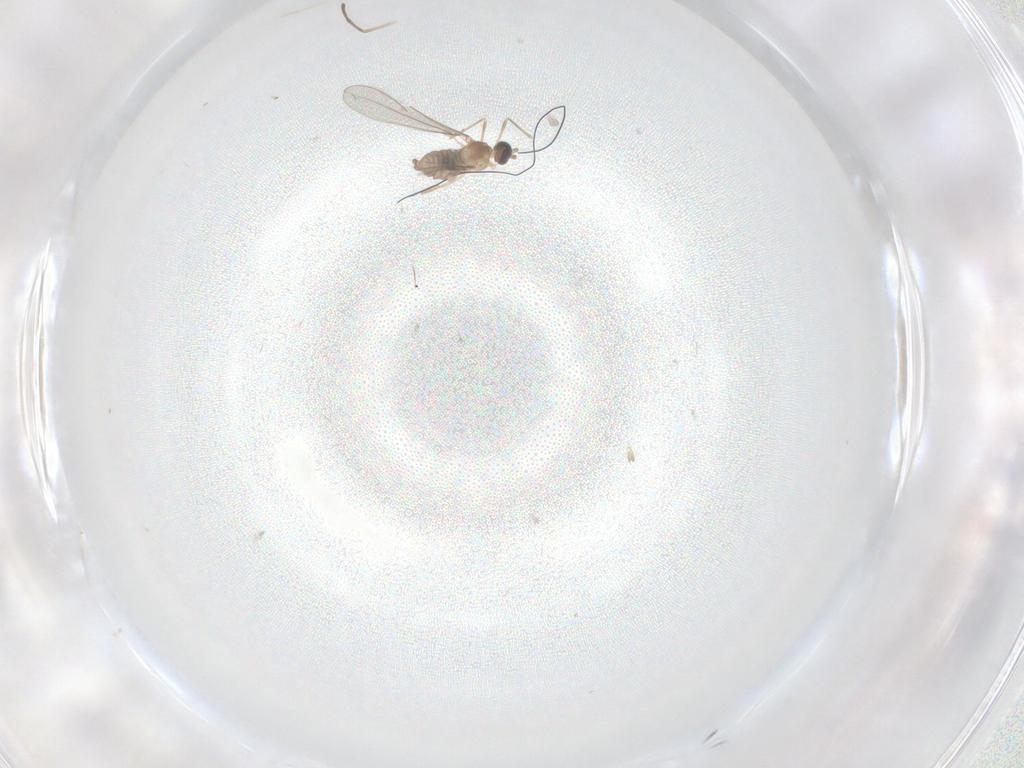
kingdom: Animalia
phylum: Arthropoda
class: Insecta
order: Diptera
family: Cecidomyiidae
